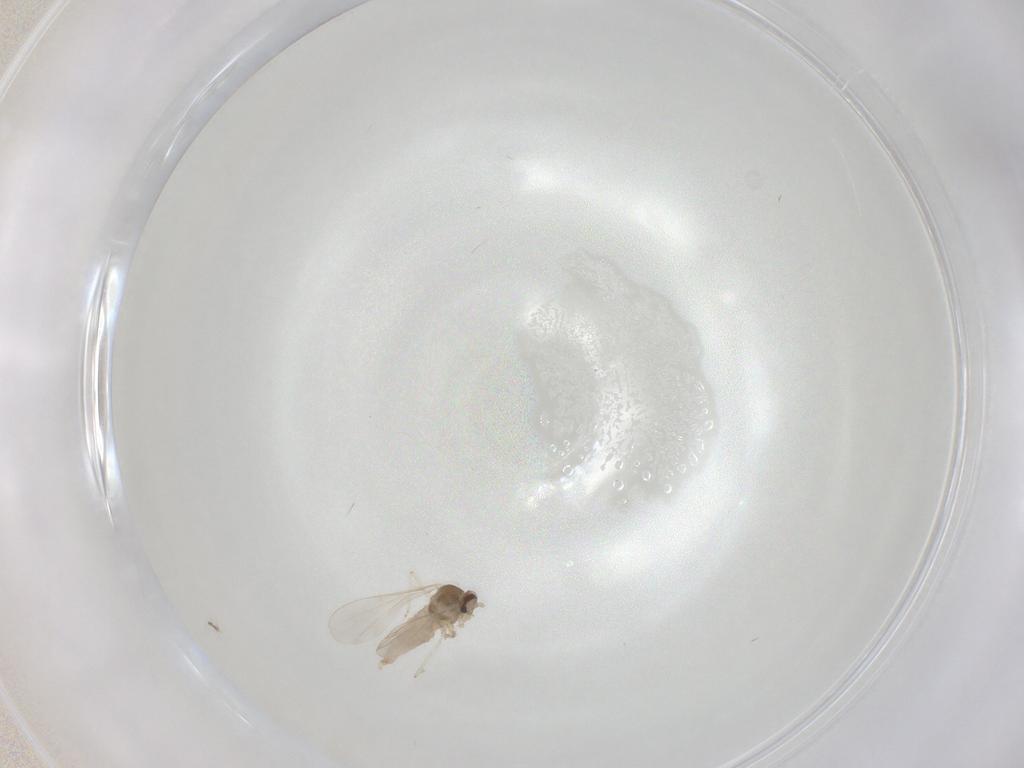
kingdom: Animalia
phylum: Arthropoda
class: Insecta
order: Diptera
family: Cecidomyiidae
